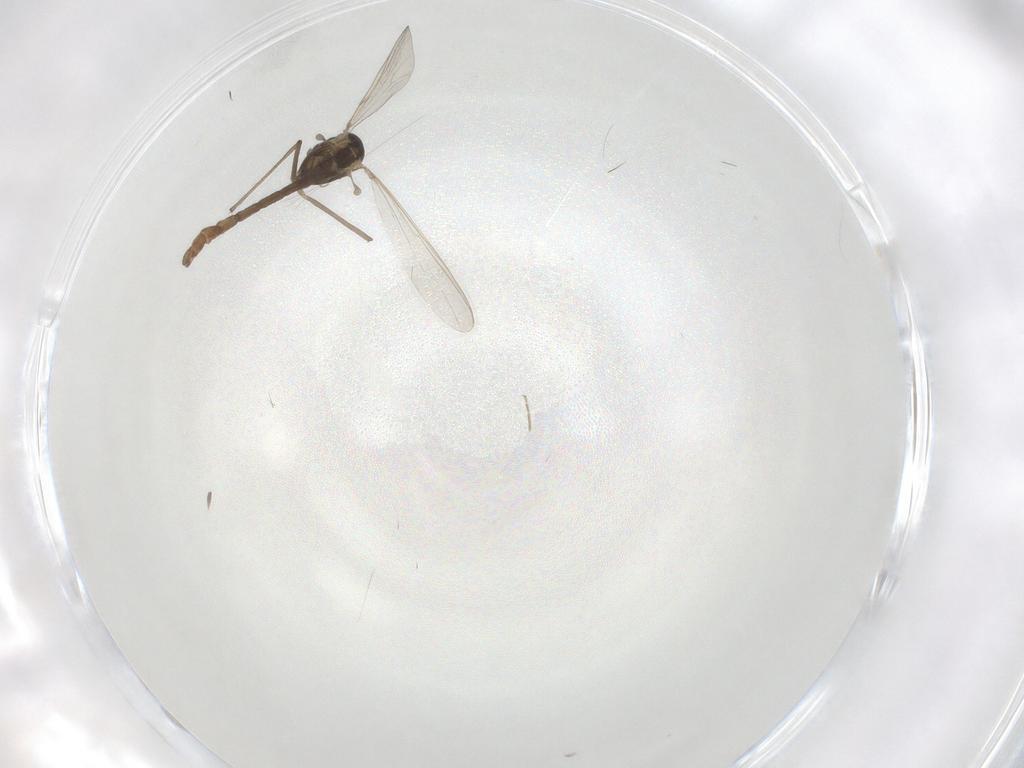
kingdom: Animalia
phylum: Arthropoda
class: Insecta
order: Diptera
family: Chironomidae
